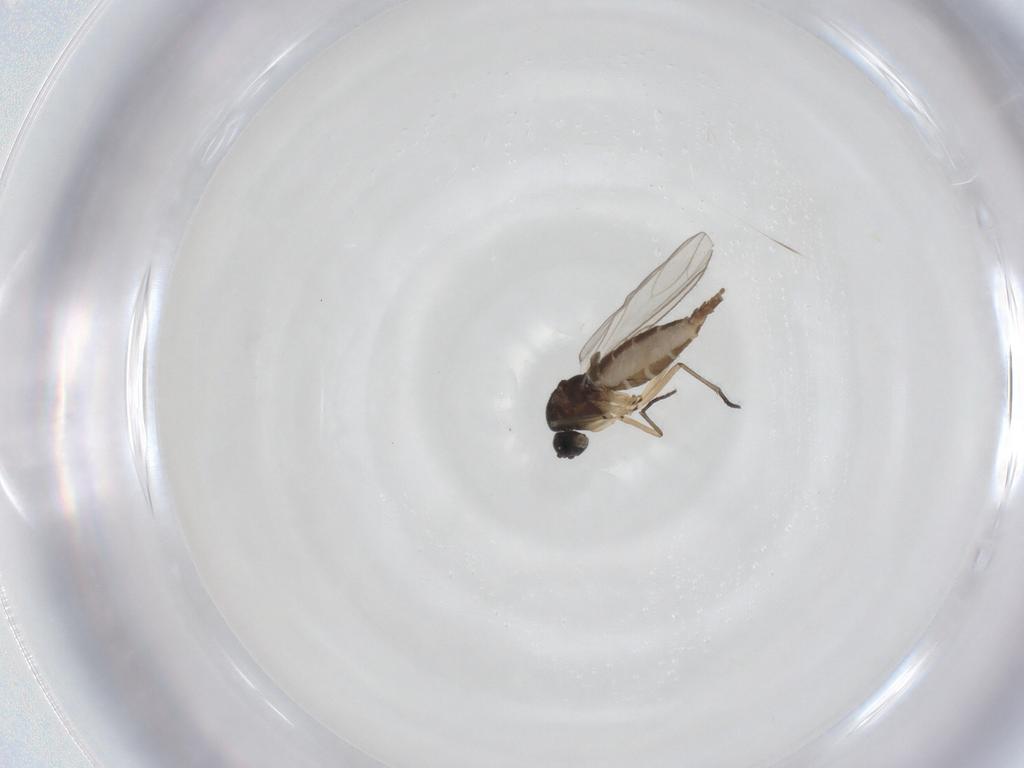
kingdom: Animalia
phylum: Arthropoda
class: Insecta
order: Diptera
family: Sciaridae
